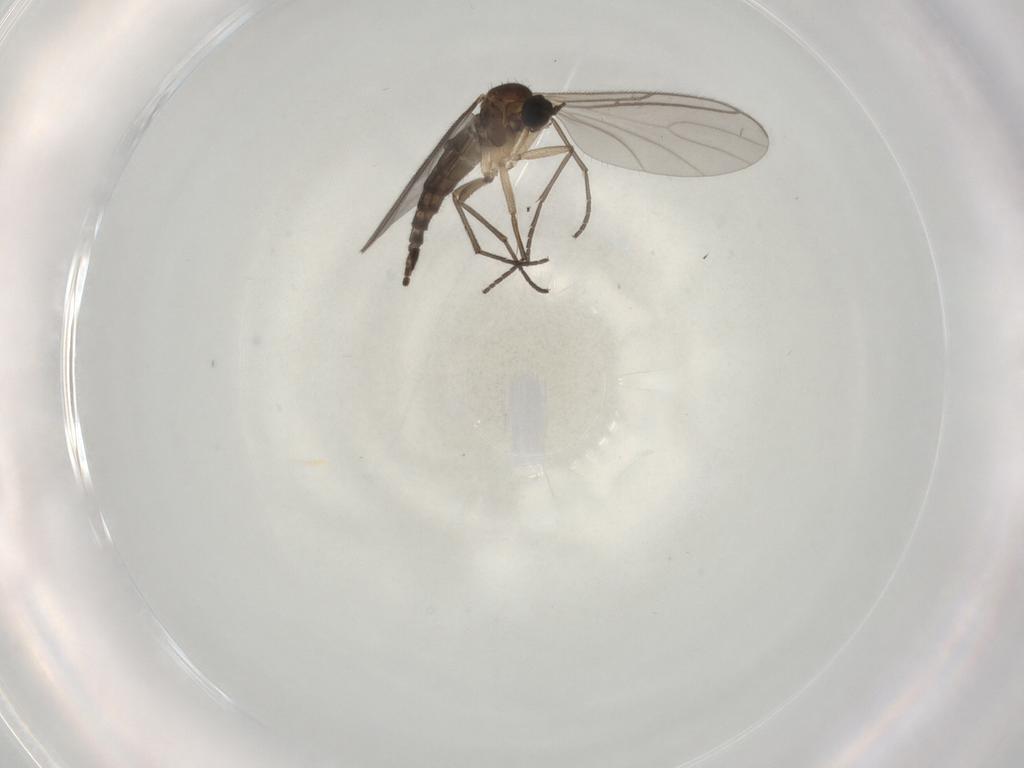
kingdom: Animalia
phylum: Arthropoda
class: Insecta
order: Diptera
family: Sciaridae
